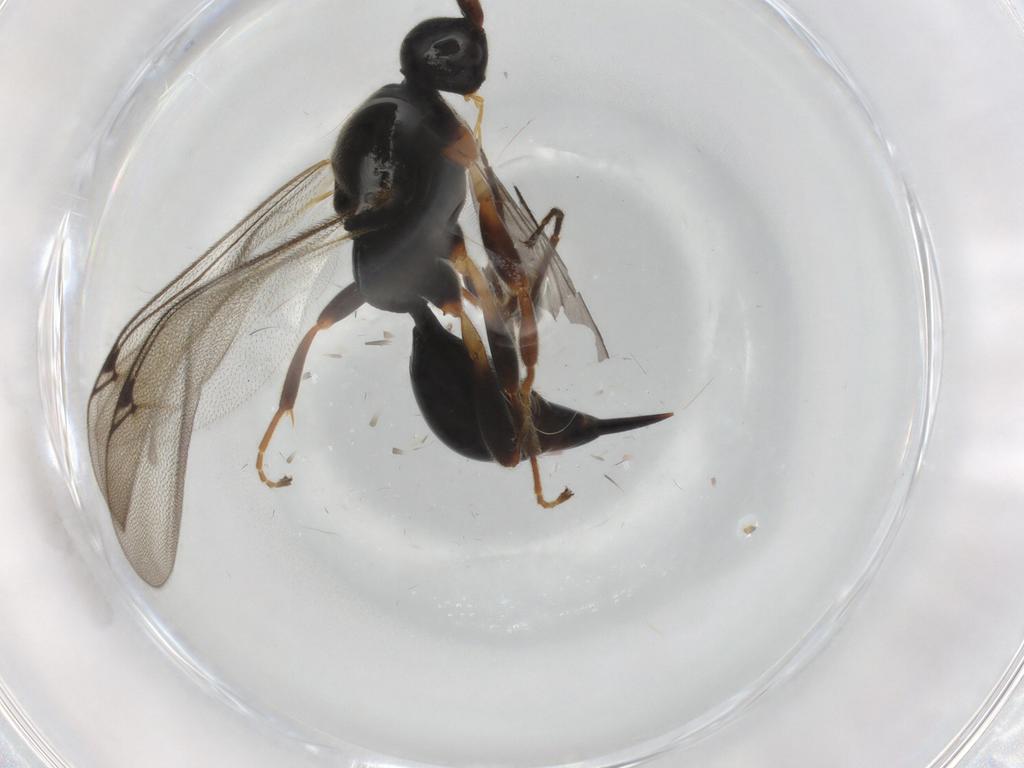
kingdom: Animalia
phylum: Arthropoda
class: Insecta
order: Hymenoptera
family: Proctotrupidae
